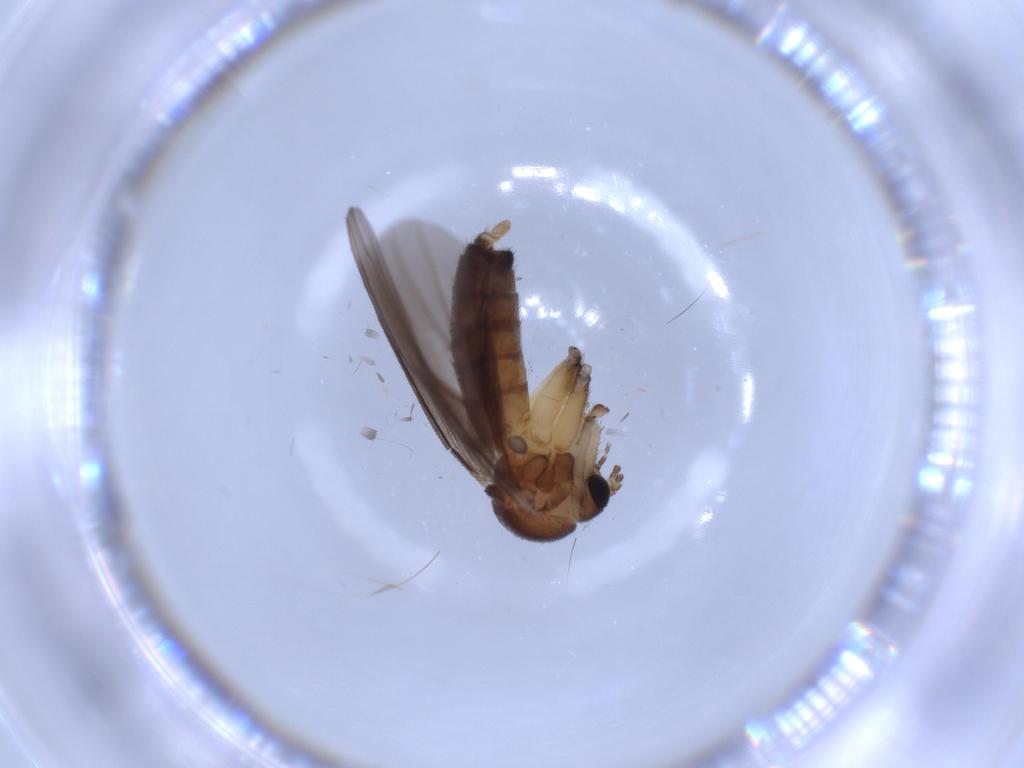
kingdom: Animalia
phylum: Arthropoda
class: Insecta
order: Diptera
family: Mycetophilidae
